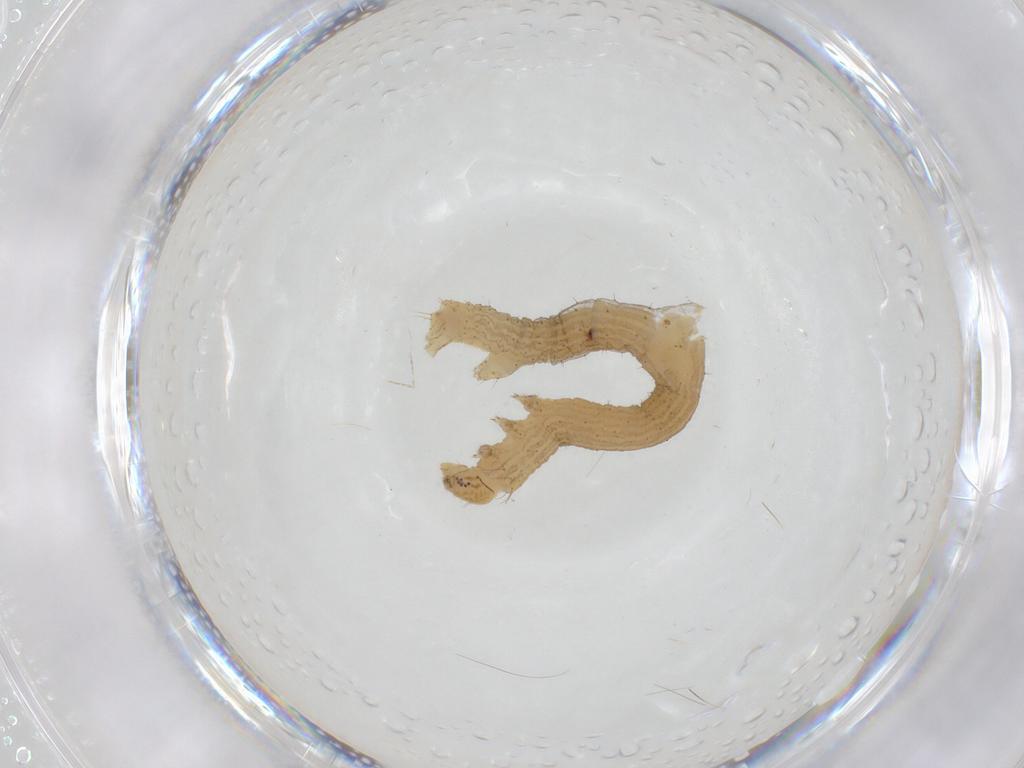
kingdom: Animalia
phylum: Arthropoda
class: Insecta
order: Lepidoptera
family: Geometridae
